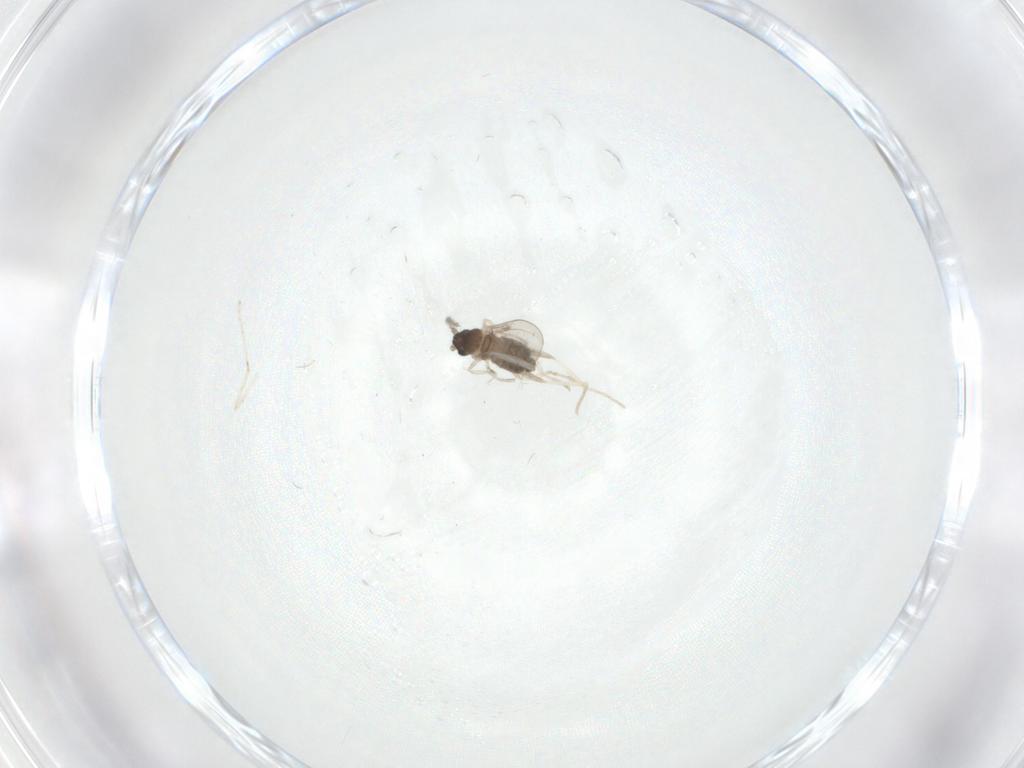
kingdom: Animalia
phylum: Arthropoda
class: Insecta
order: Diptera
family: Cecidomyiidae
